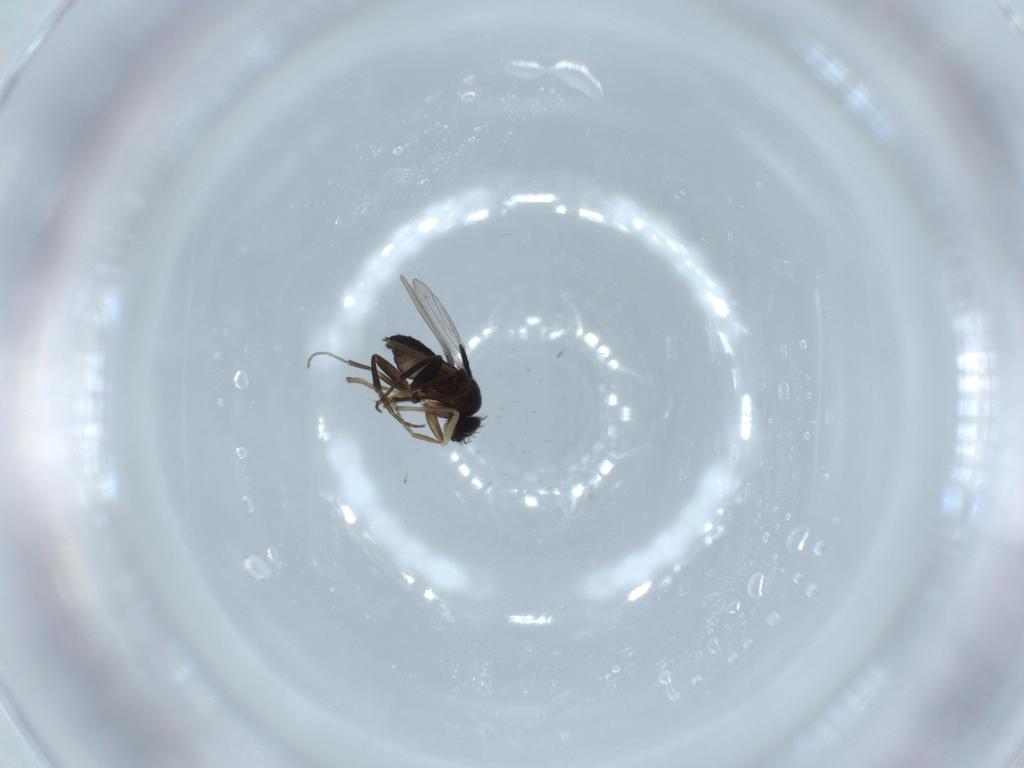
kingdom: Animalia
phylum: Arthropoda
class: Insecta
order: Diptera
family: Phoridae
